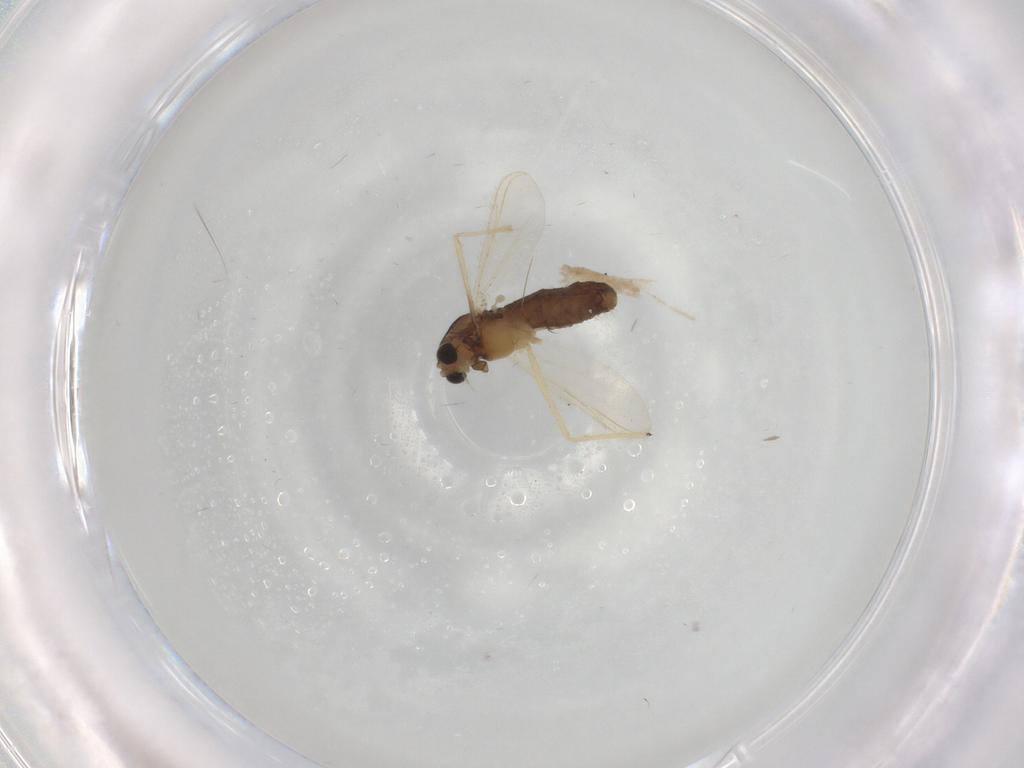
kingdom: Animalia
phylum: Arthropoda
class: Insecta
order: Diptera
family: Chironomidae
